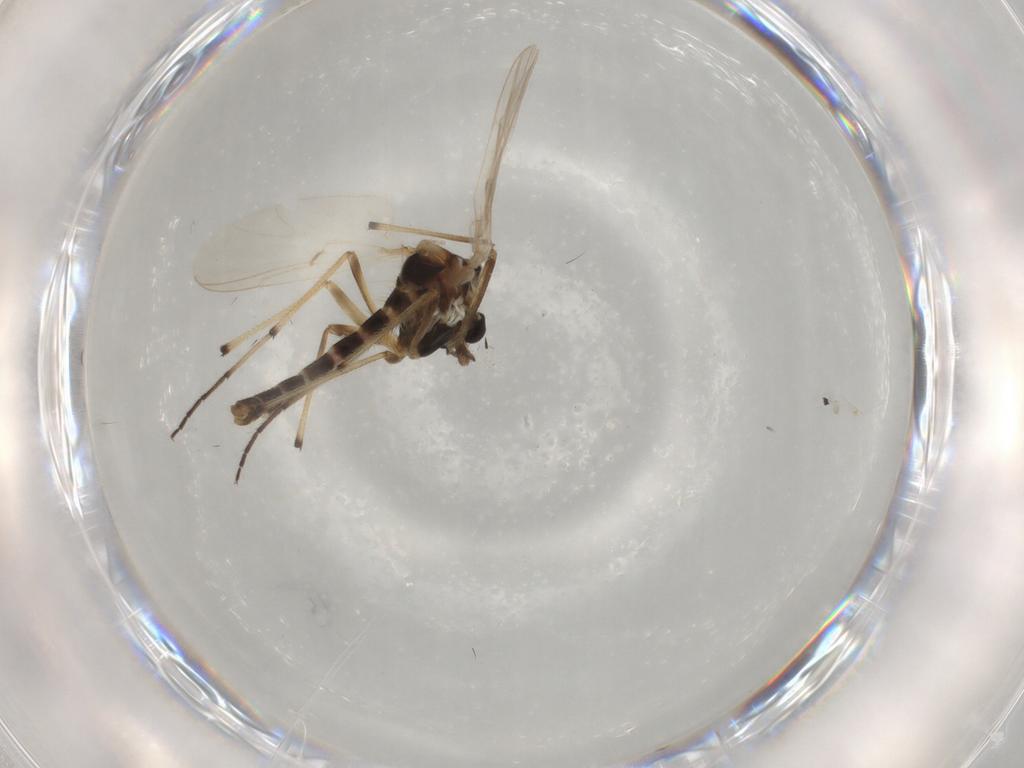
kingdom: Animalia
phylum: Arthropoda
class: Insecta
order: Diptera
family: Chironomidae
